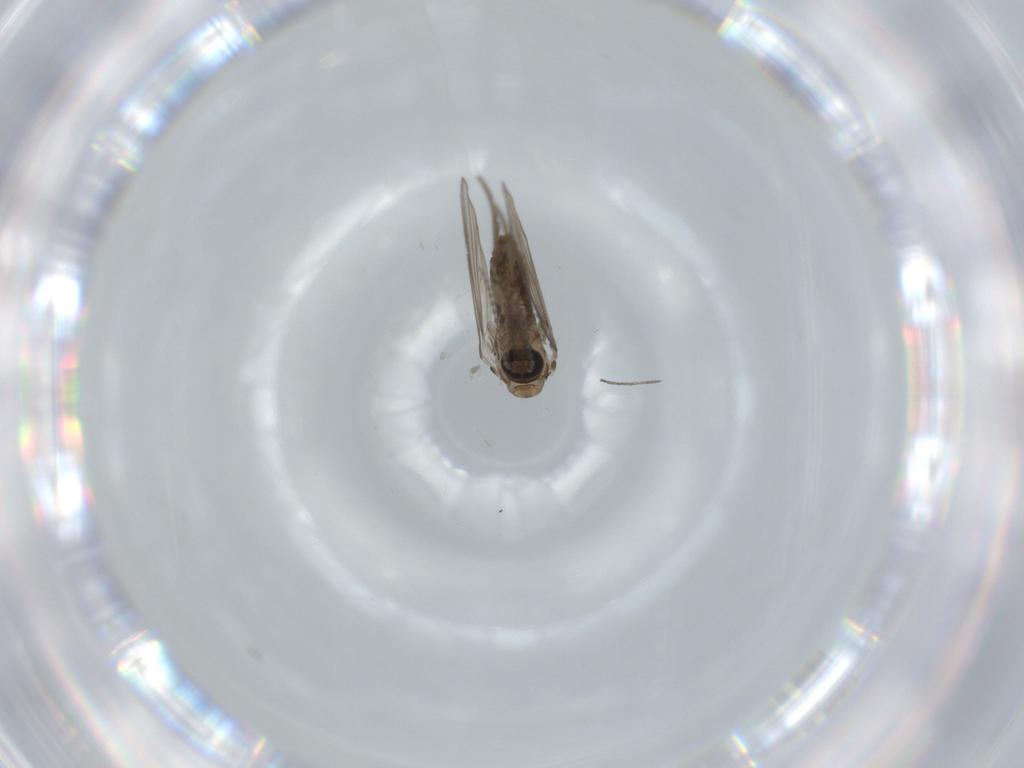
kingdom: Animalia
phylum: Arthropoda
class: Insecta
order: Diptera
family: Psychodidae
